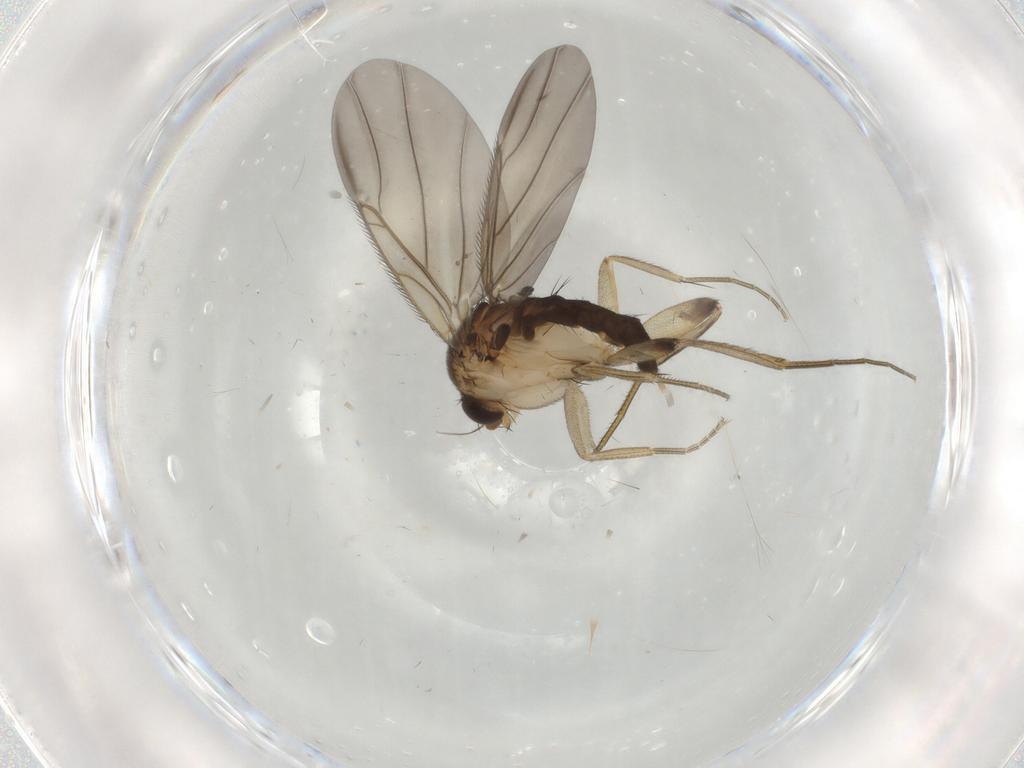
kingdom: Animalia
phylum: Arthropoda
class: Insecta
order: Diptera
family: Phoridae
